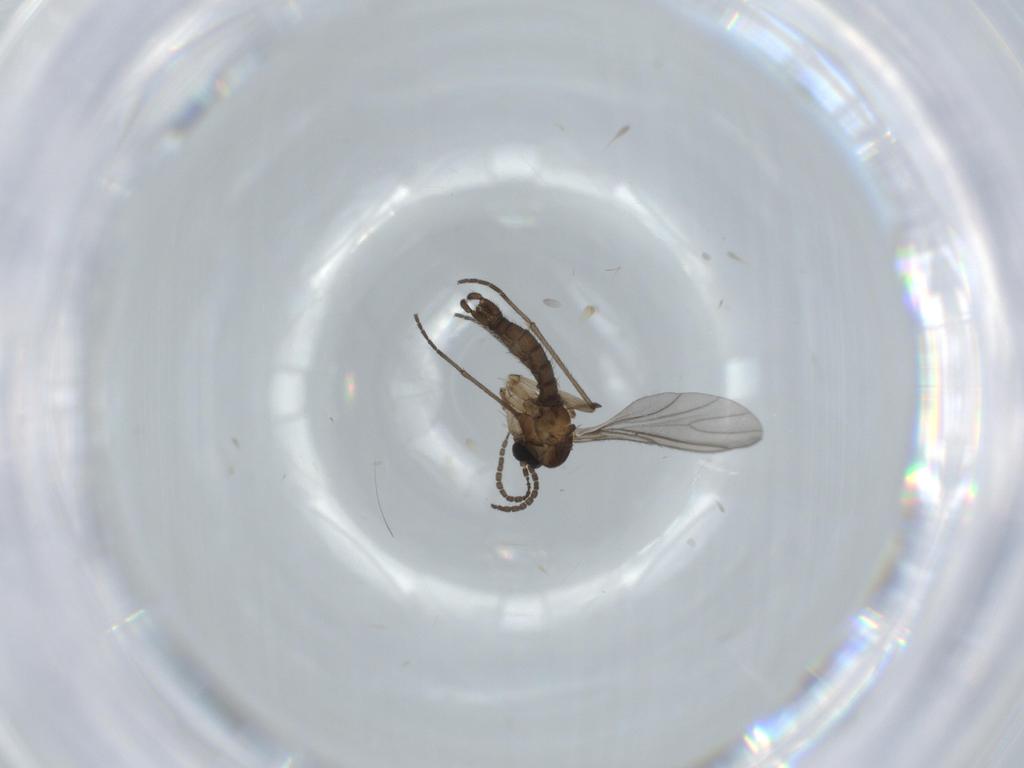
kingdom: Animalia
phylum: Arthropoda
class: Insecta
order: Diptera
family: Sciaridae
